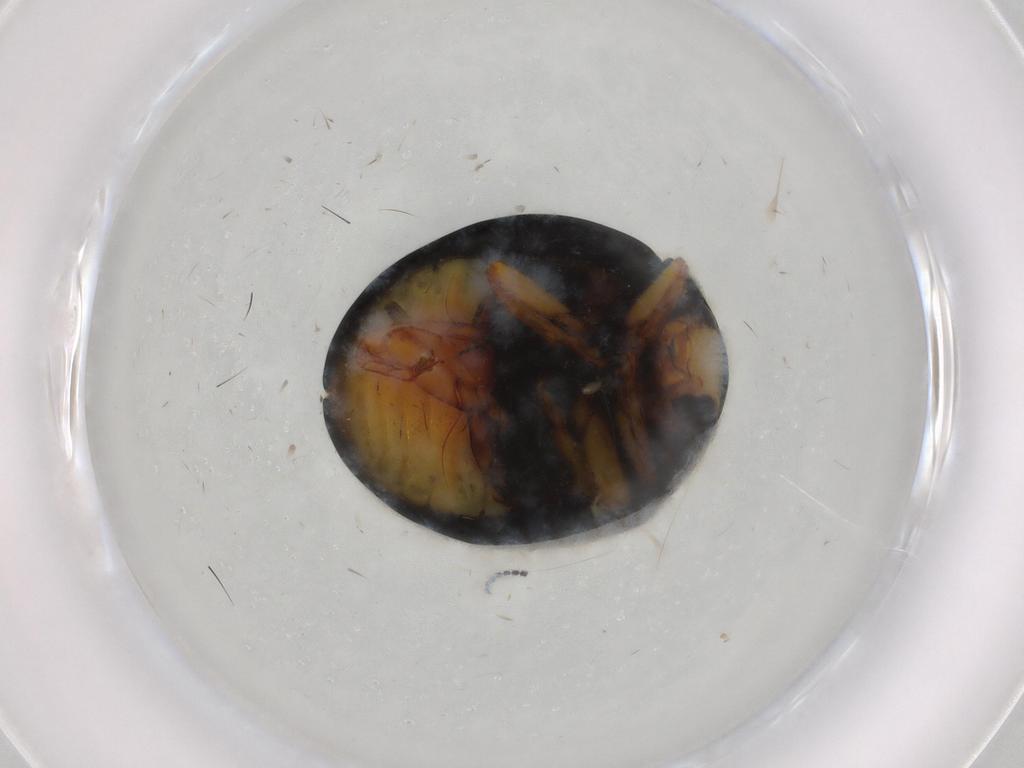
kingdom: Animalia
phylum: Arthropoda
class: Insecta
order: Coleoptera
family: Coccinellidae
